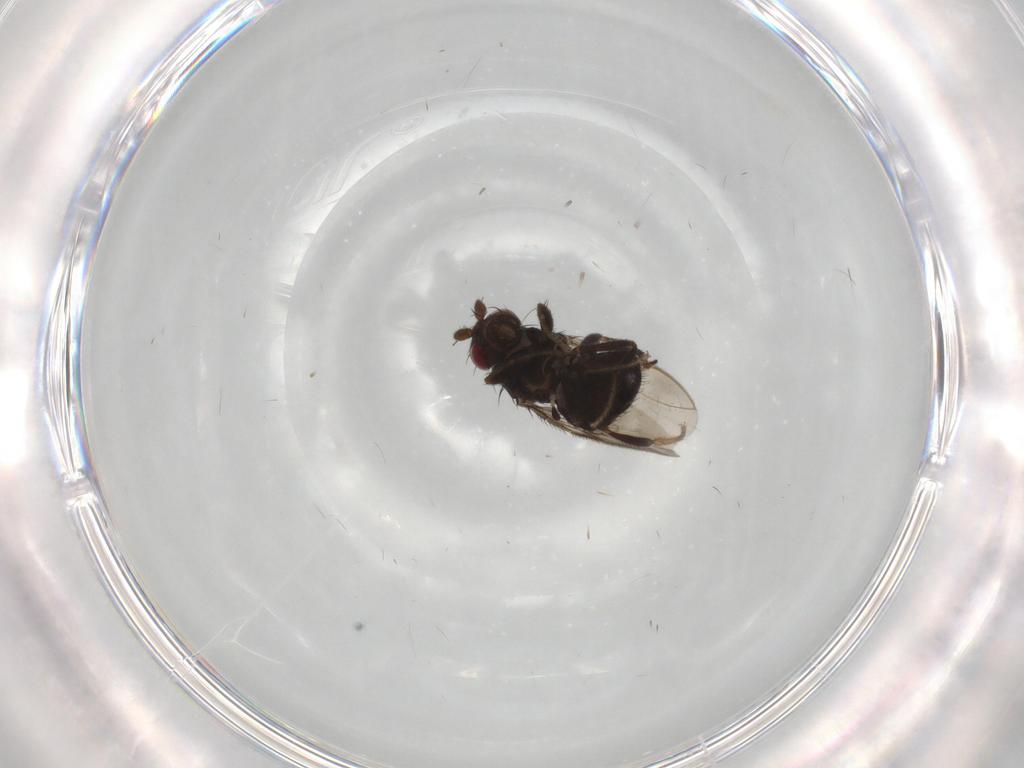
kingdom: Animalia
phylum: Arthropoda
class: Insecta
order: Diptera
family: Sphaeroceridae
